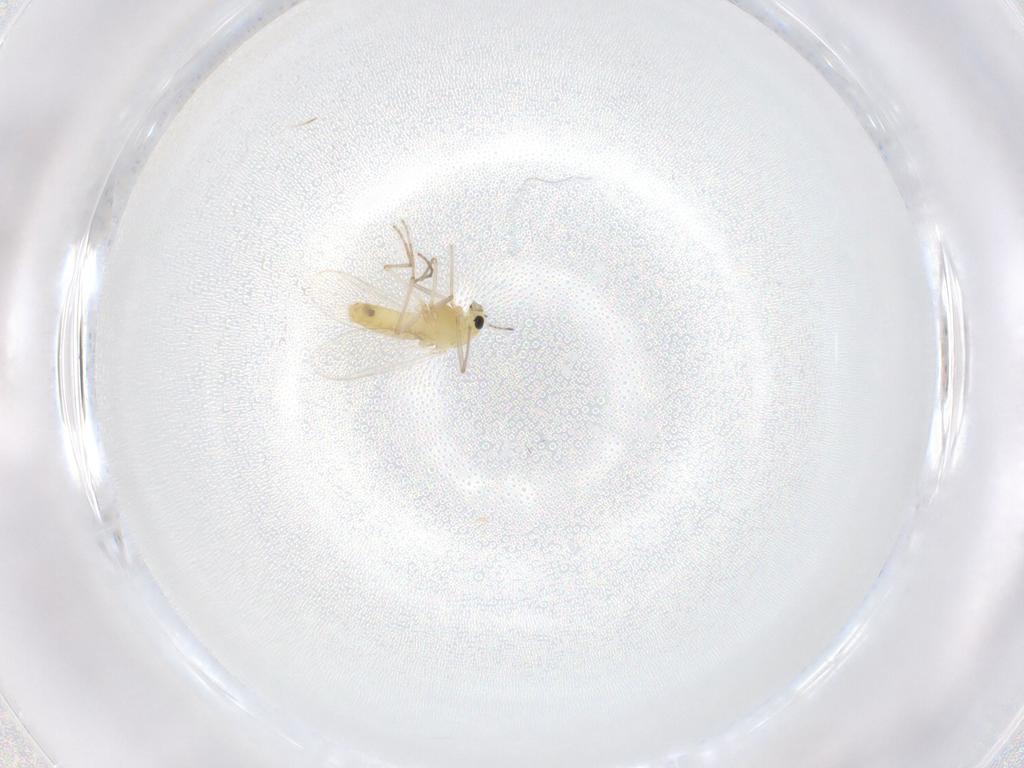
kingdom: Animalia
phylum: Arthropoda
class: Insecta
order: Diptera
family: Chironomidae
